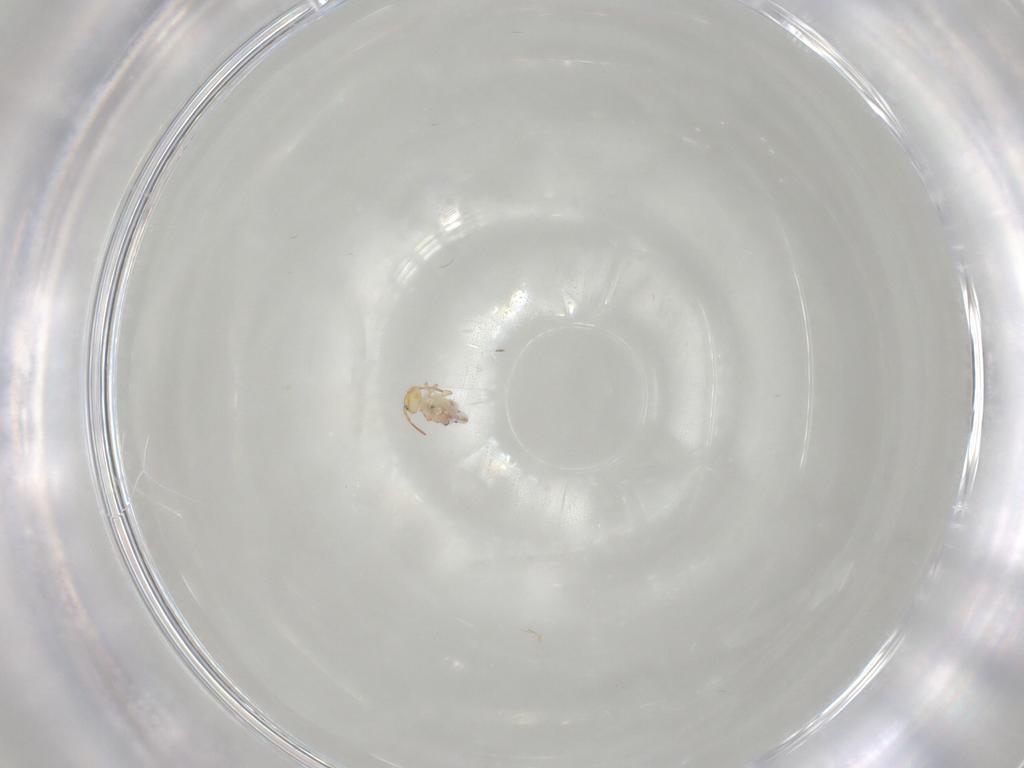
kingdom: Animalia
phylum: Arthropoda
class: Collembola
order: Symphypleona
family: Bourletiellidae
